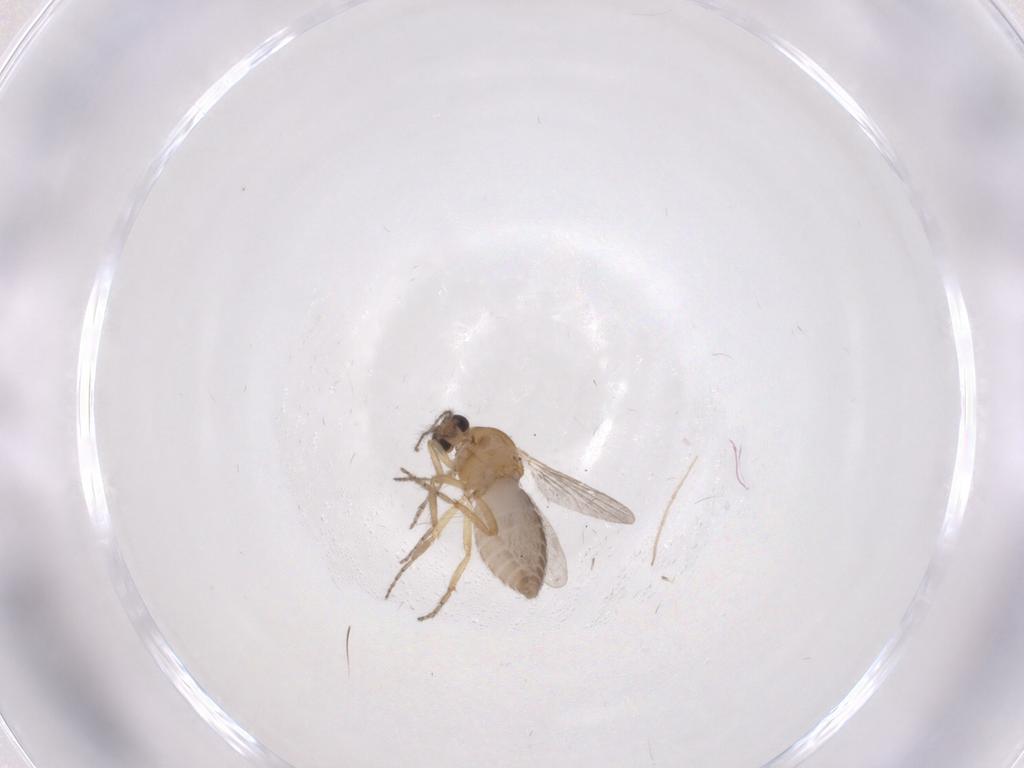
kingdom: Animalia
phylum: Arthropoda
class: Insecta
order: Diptera
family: Ceratopogonidae
